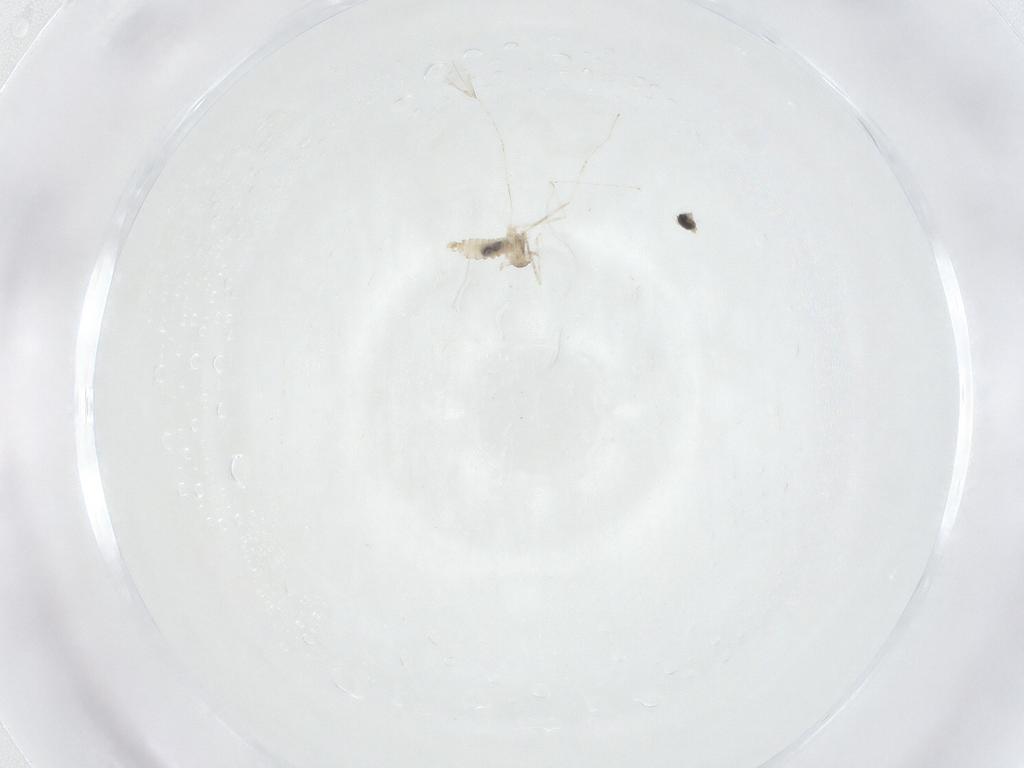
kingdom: Animalia
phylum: Arthropoda
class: Insecta
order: Diptera
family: Cecidomyiidae
